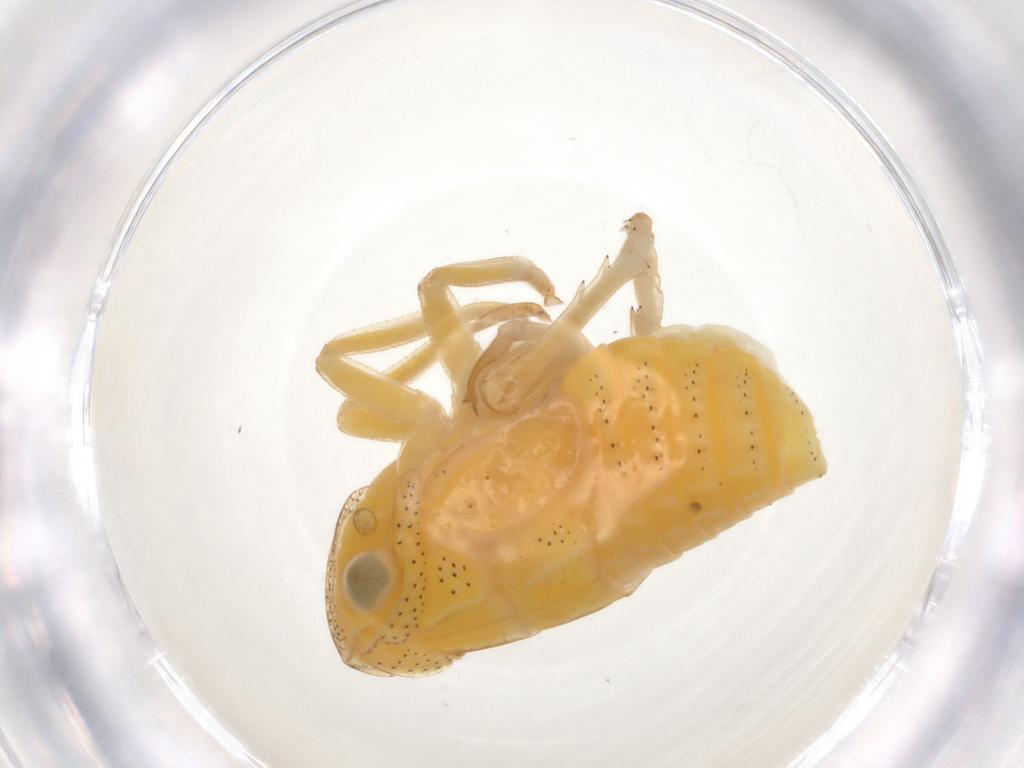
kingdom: Animalia
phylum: Arthropoda
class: Insecta
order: Hemiptera
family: Tropiduchidae
